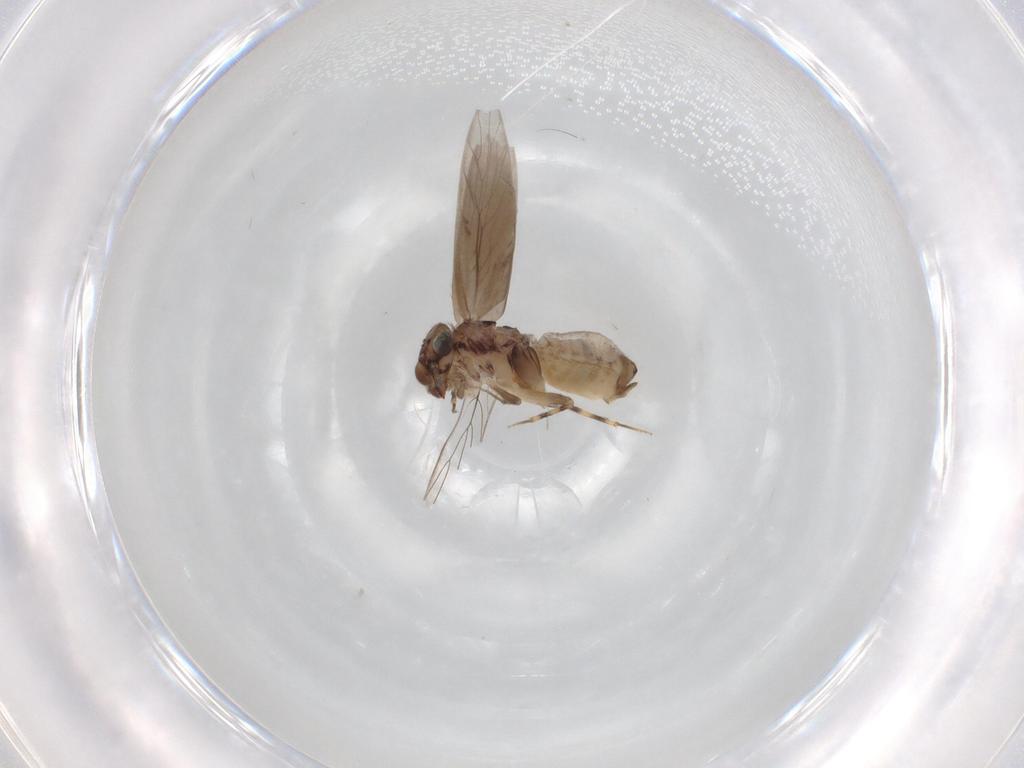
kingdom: Animalia
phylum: Arthropoda
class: Insecta
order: Psocodea
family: Lepidopsocidae
